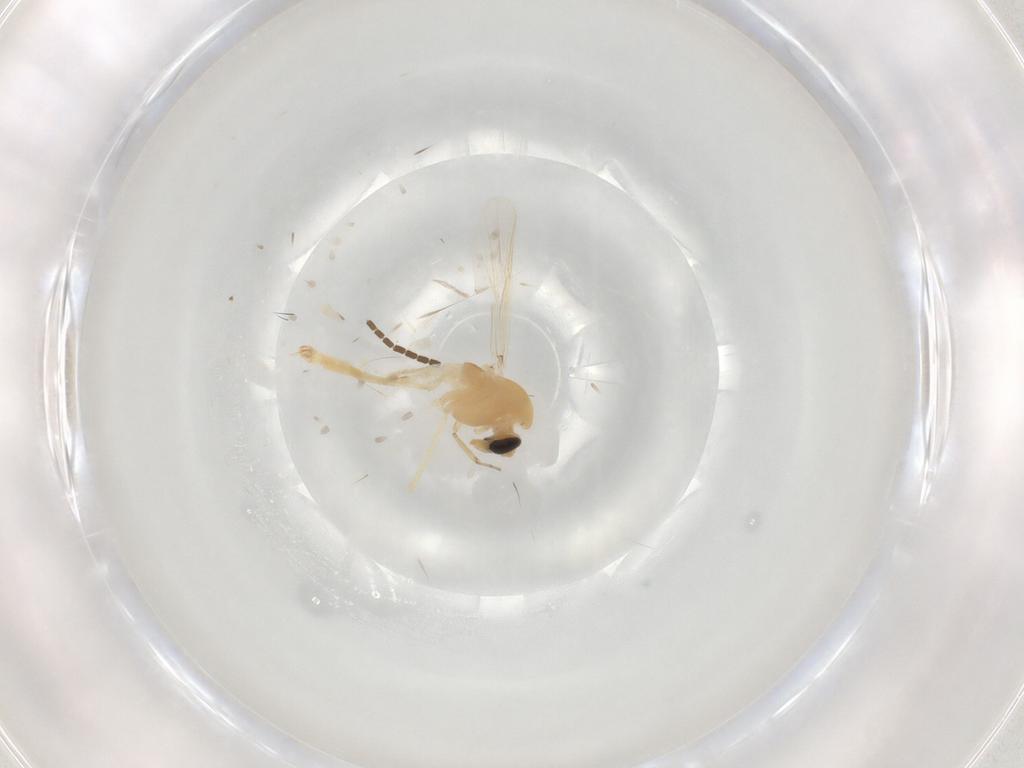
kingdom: Animalia
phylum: Arthropoda
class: Insecta
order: Diptera
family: Chironomidae
